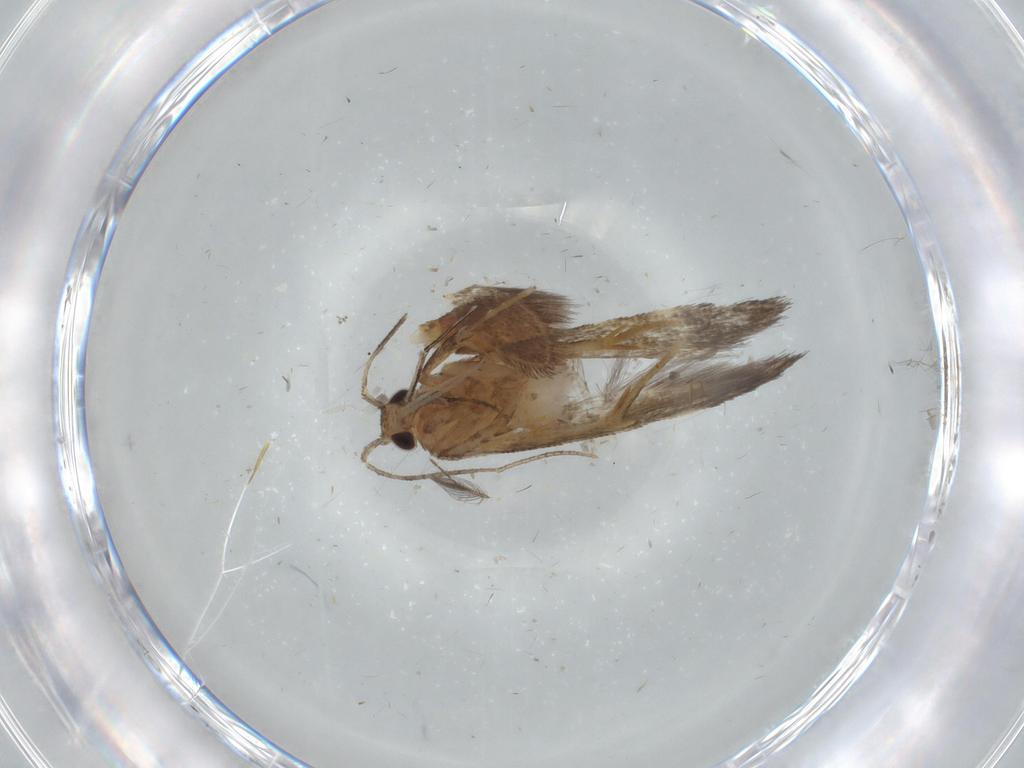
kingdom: Animalia
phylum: Arthropoda
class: Insecta
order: Lepidoptera
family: Cosmopterigidae
